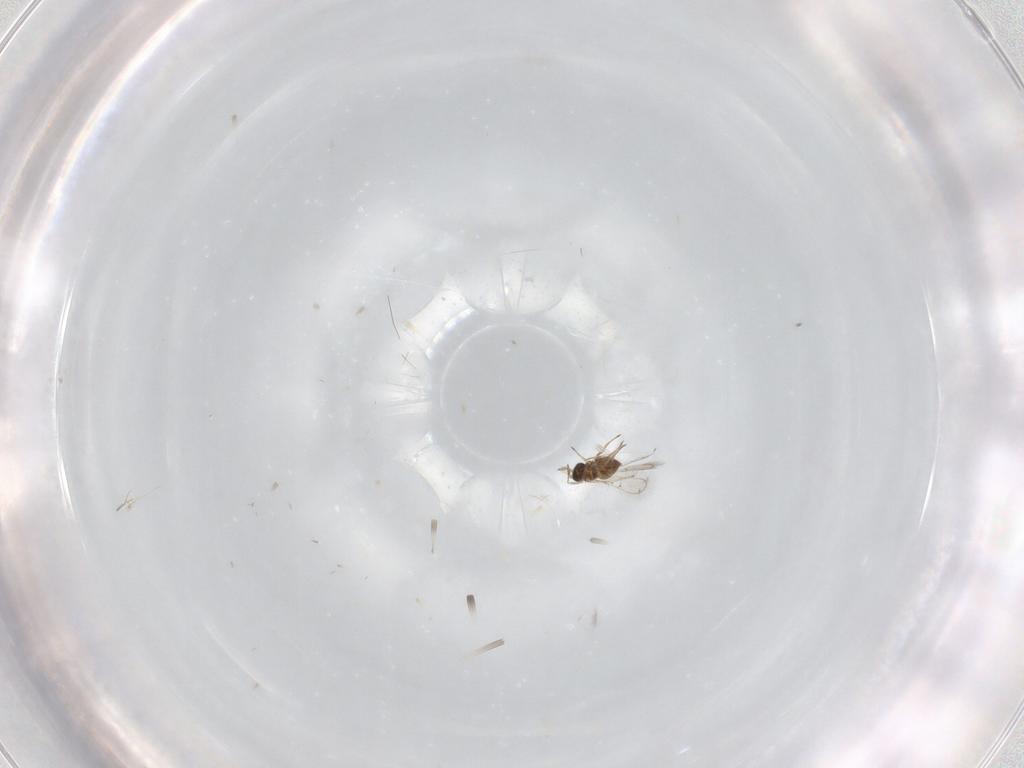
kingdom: Animalia
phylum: Arthropoda
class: Insecta
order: Hymenoptera
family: Trichogrammatidae
